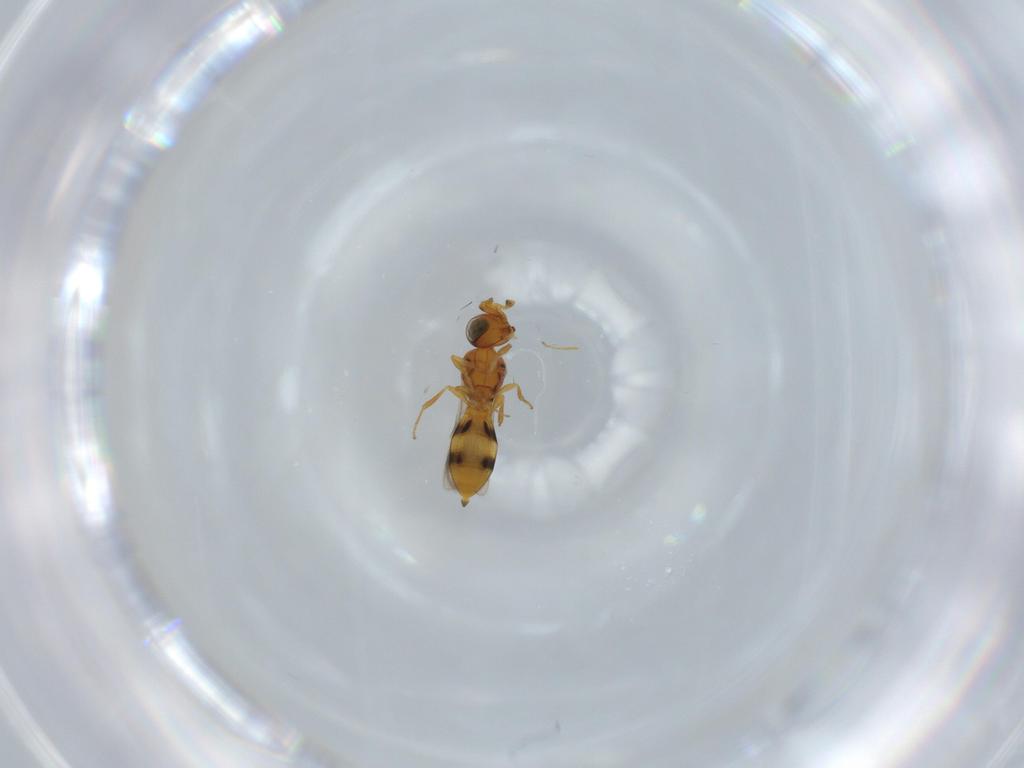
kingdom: Animalia
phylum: Arthropoda
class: Insecta
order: Hymenoptera
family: Scelionidae
